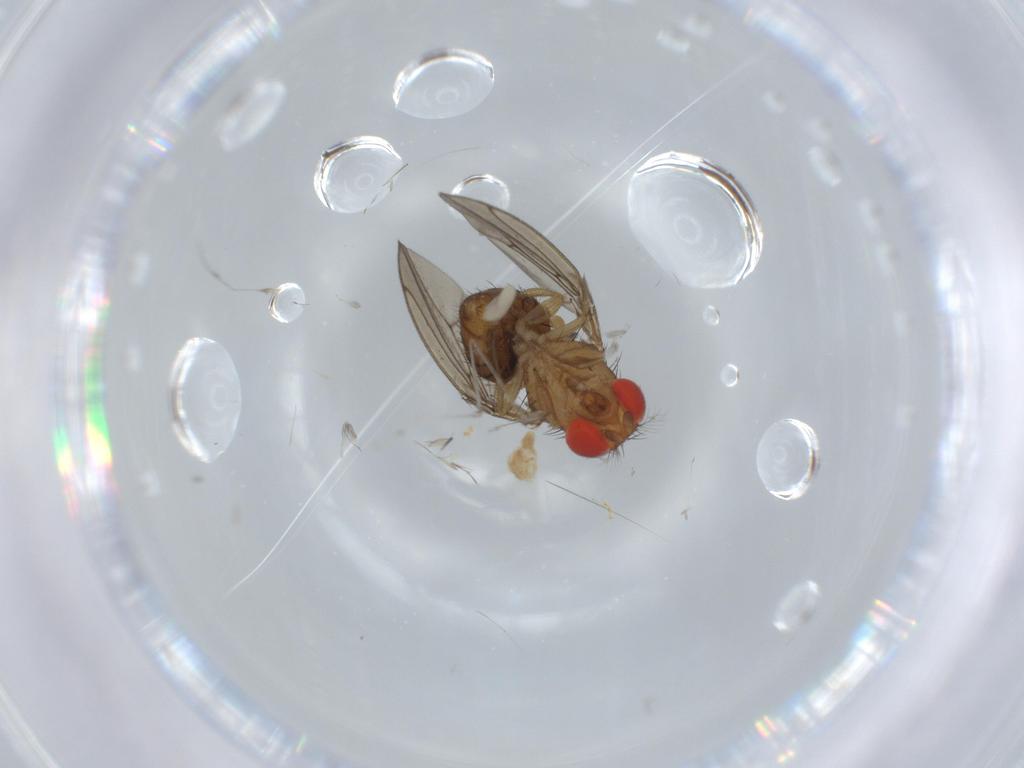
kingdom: Animalia
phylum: Arthropoda
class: Insecta
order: Diptera
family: Drosophilidae
